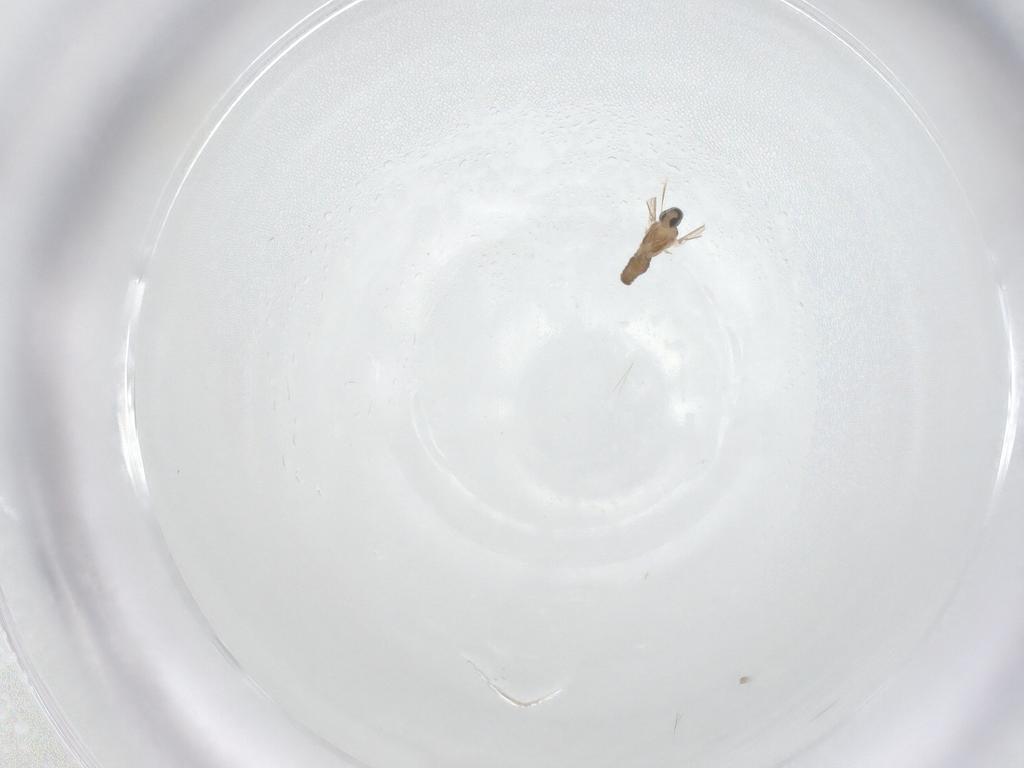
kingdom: Animalia
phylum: Arthropoda
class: Insecta
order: Diptera
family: Cecidomyiidae
